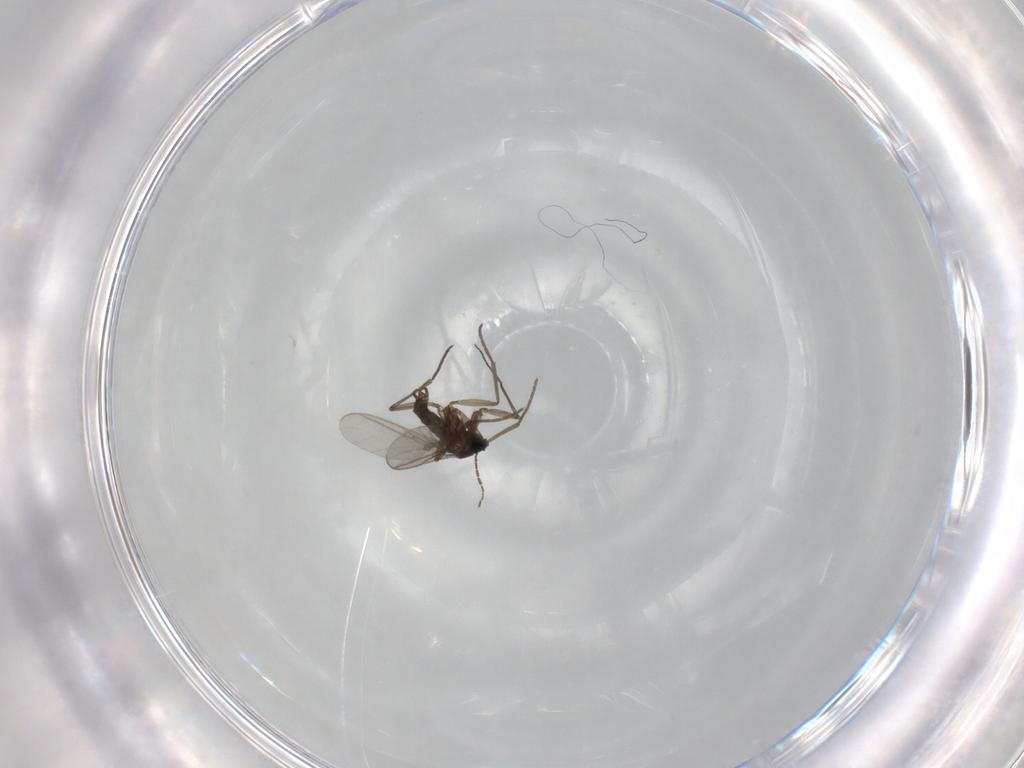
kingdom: Animalia
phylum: Arthropoda
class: Insecta
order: Diptera
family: Sciaridae
